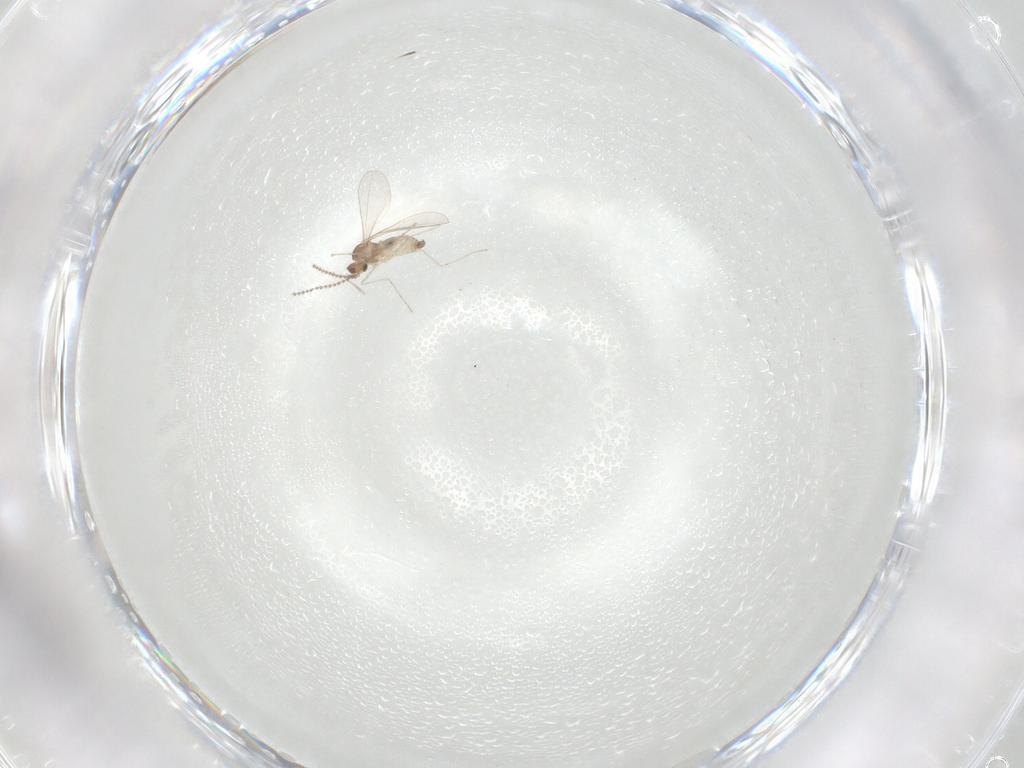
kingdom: Animalia
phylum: Arthropoda
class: Insecta
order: Diptera
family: Cecidomyiidae
